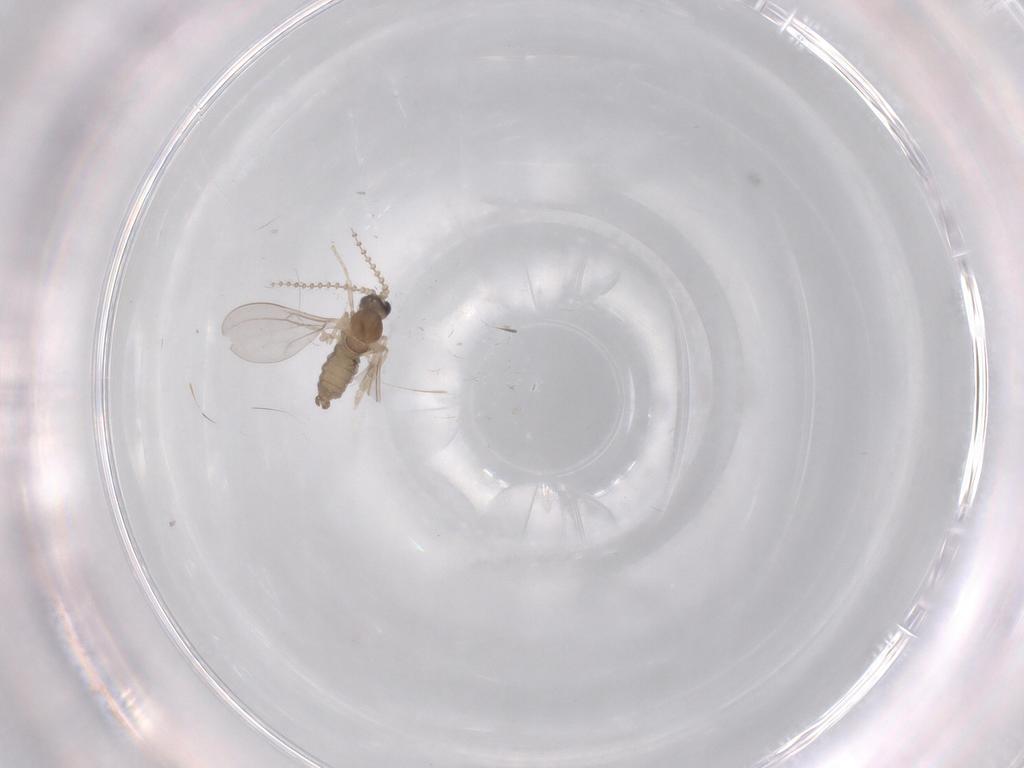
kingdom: Animalia
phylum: Arthropoda
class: Insecta
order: Diptera
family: Cecidomyiidae
